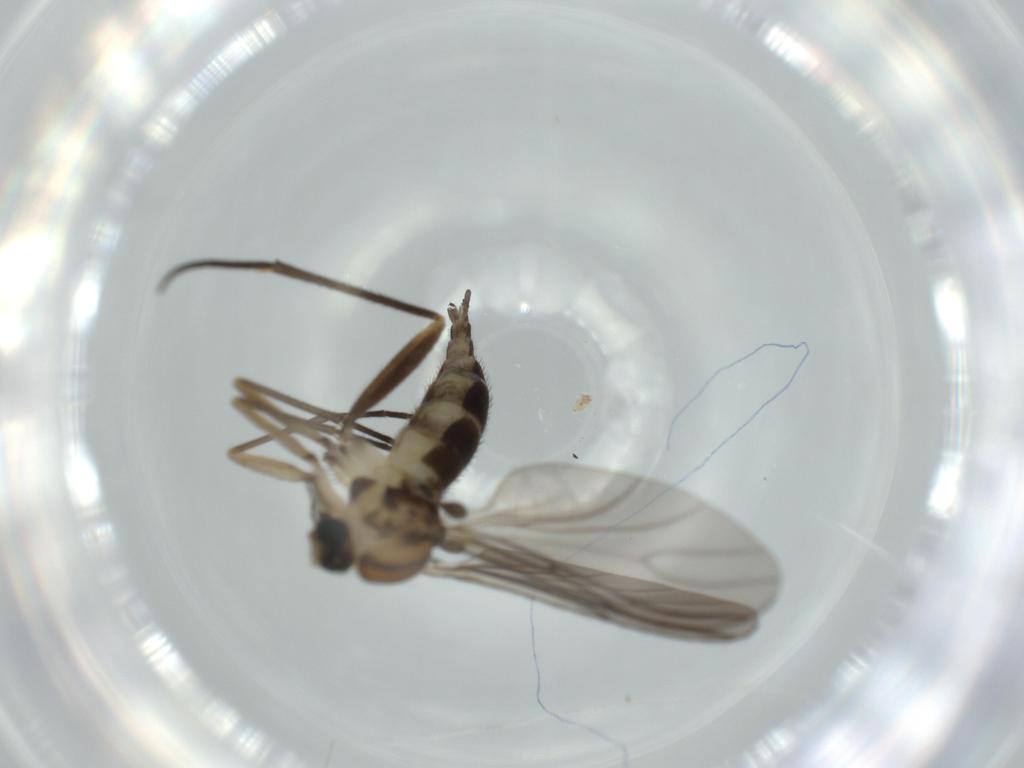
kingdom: Animalia
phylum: Arthropoda
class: Insecta
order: Diptera
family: Sciaridae
